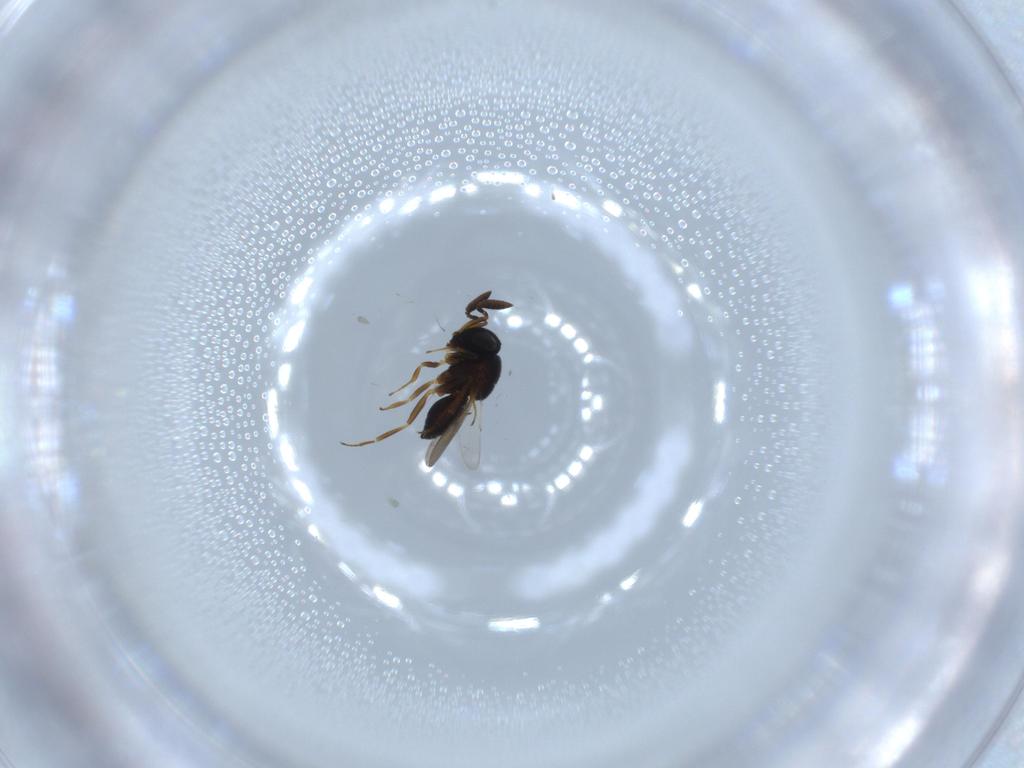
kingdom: Animalia
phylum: Arthropoda
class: Insecta
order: Hymenoptera
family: Scelionidae
